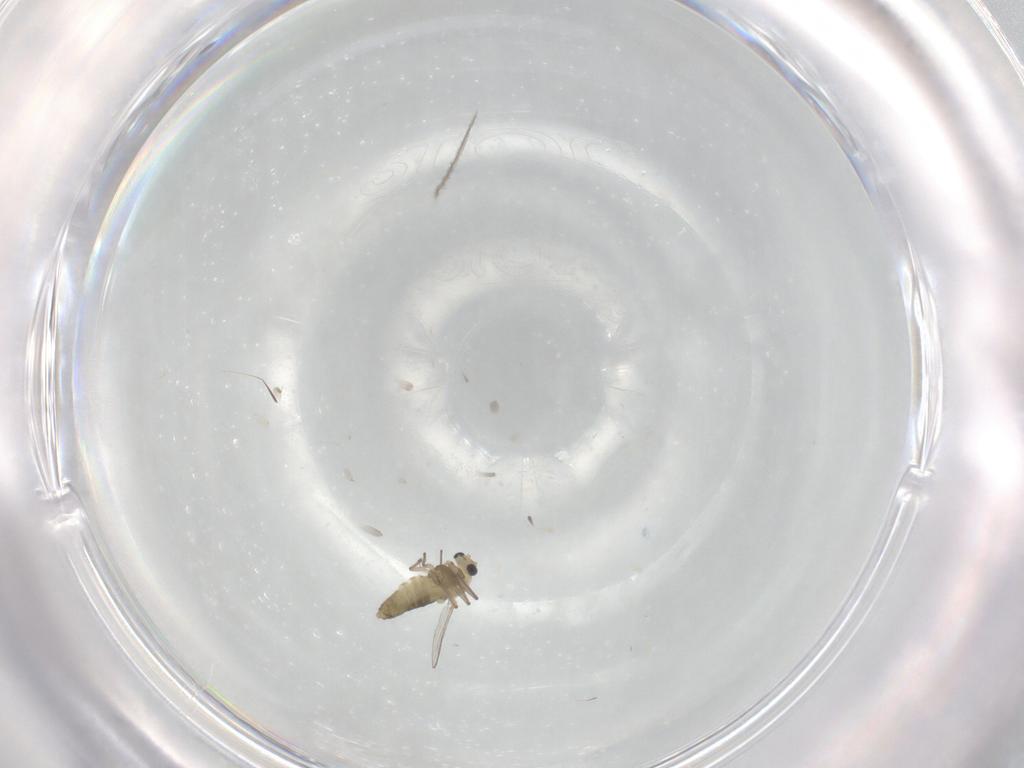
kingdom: Animalia
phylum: Arthropoda
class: Insecta
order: Diptera
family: Chironomidae
